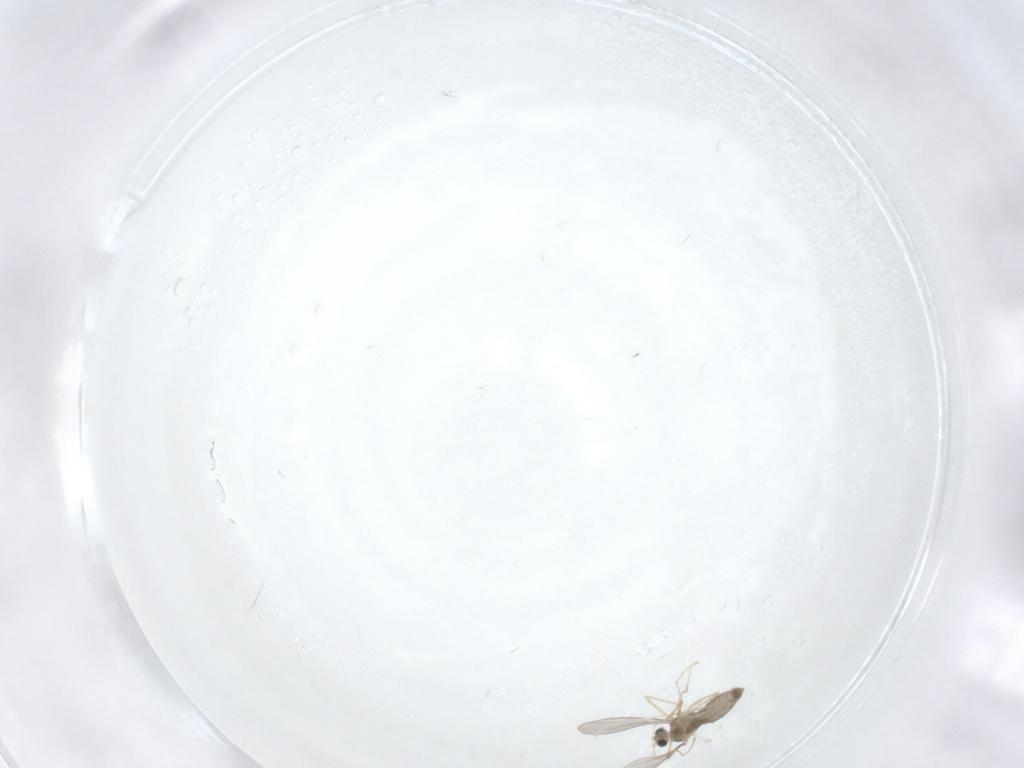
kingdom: Animalia
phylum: Arthropoda
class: Insecta
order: Diptera
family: Cecidomyiidae
